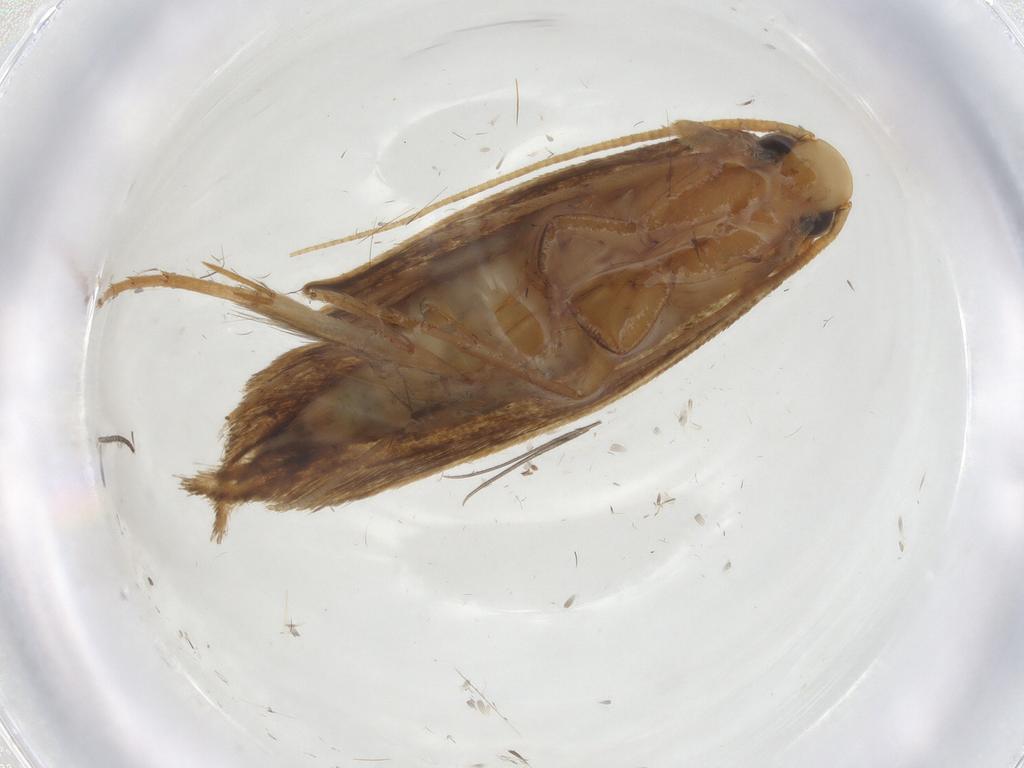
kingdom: Animalia
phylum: Arthropoda
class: Insecta
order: Lepidoptera
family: Tineidae
